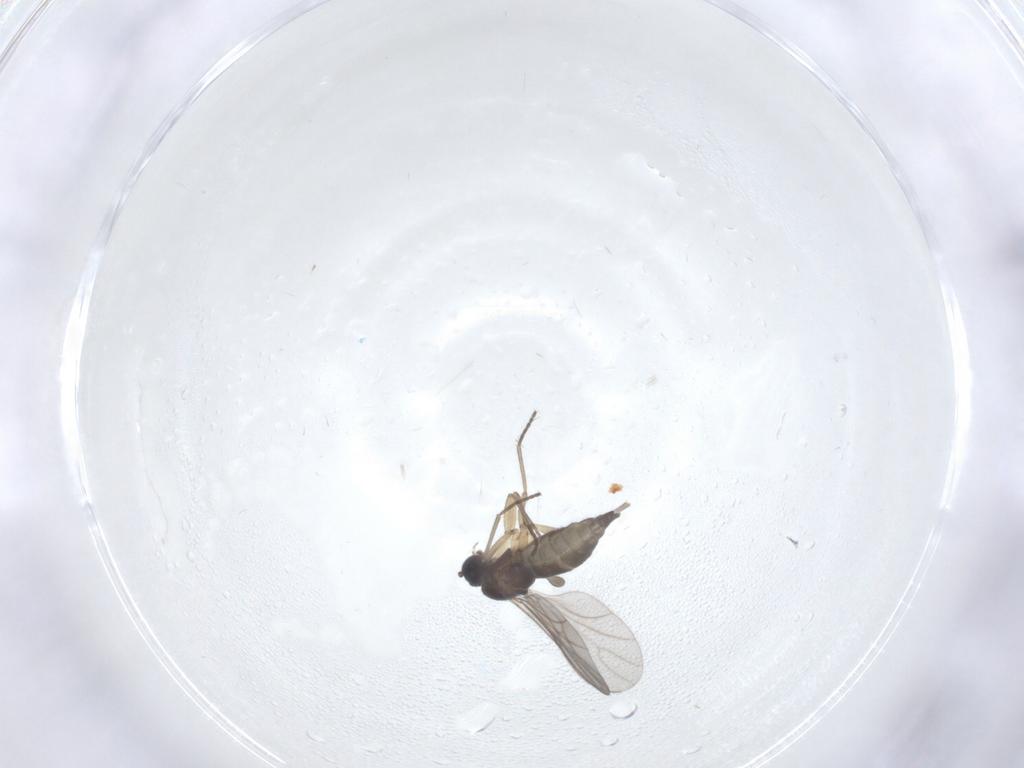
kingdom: Animalia
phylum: Arthropoda
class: Insecta
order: Diptera
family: Sciaridae
